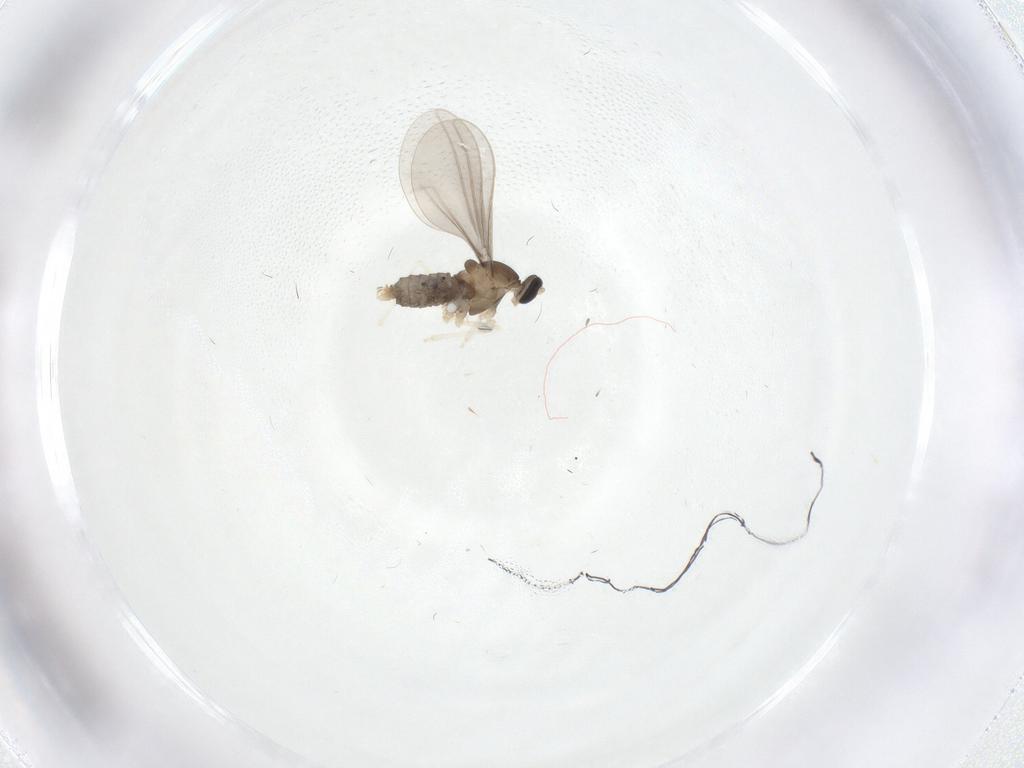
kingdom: Animalia
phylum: Arthropoda
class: Insecta
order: Diptera
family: Cecidomyiidae
